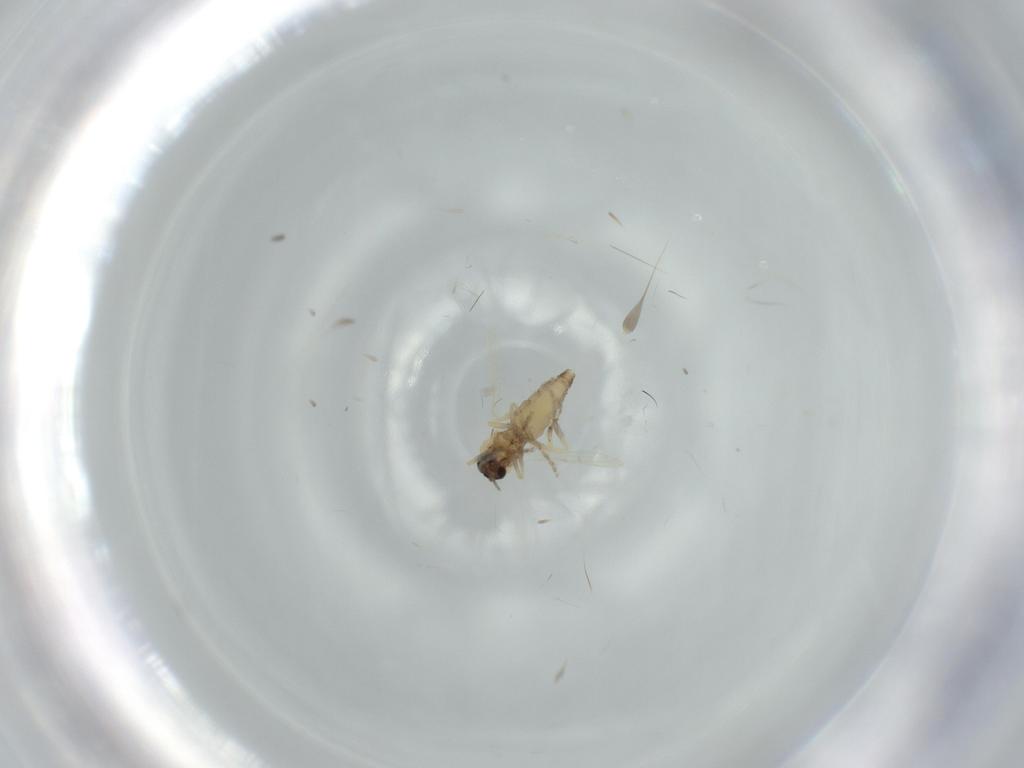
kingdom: Animalia
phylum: Arthropoda
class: Insecta
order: Diptera
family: Ceratopogonidae
